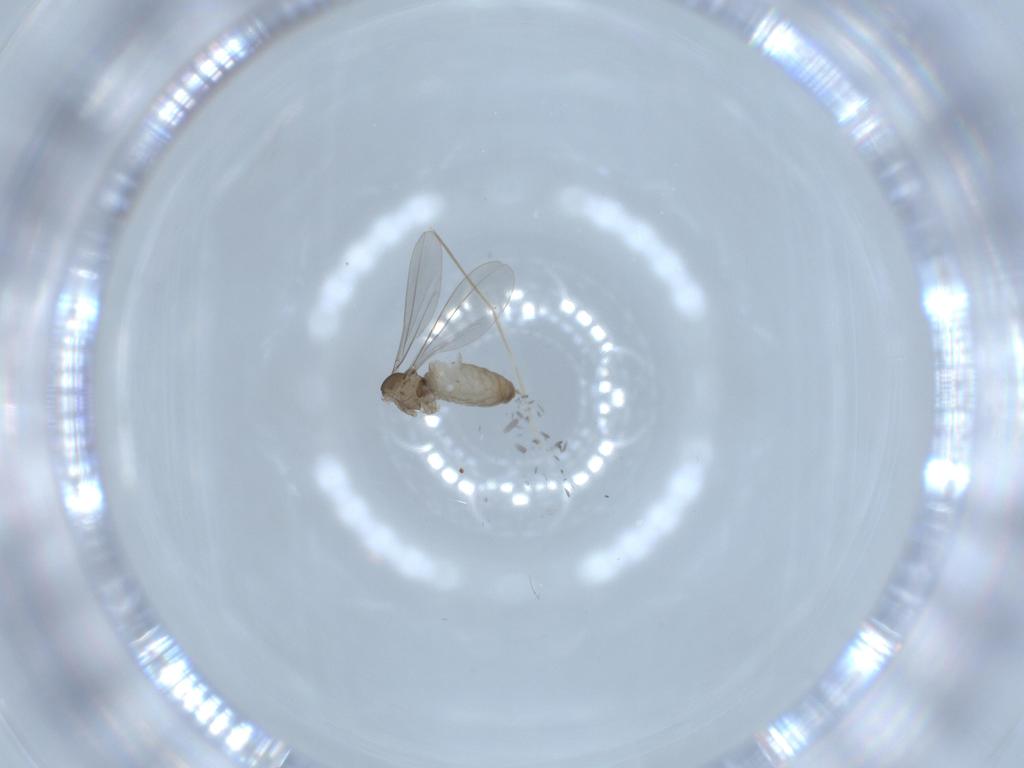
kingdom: Animalia
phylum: Arthropoda
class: Insecta
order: Diptera
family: Chironomidae
